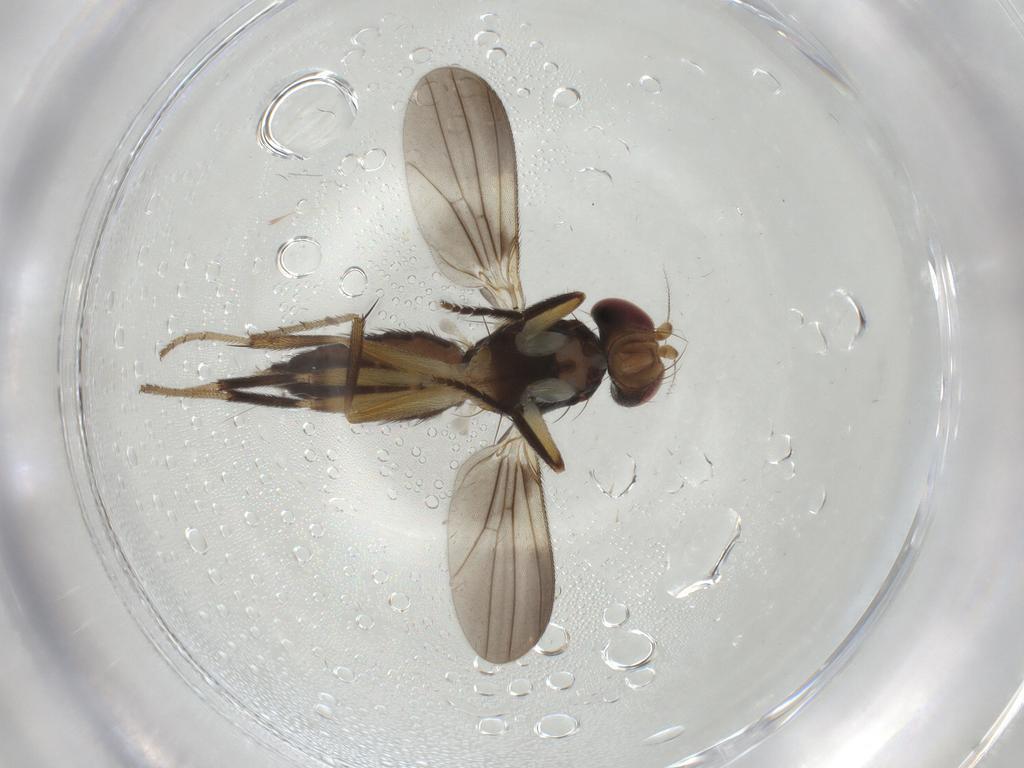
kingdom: Animalia
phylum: Arthropoda
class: Insecta
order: Diptera
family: Clusiidae
